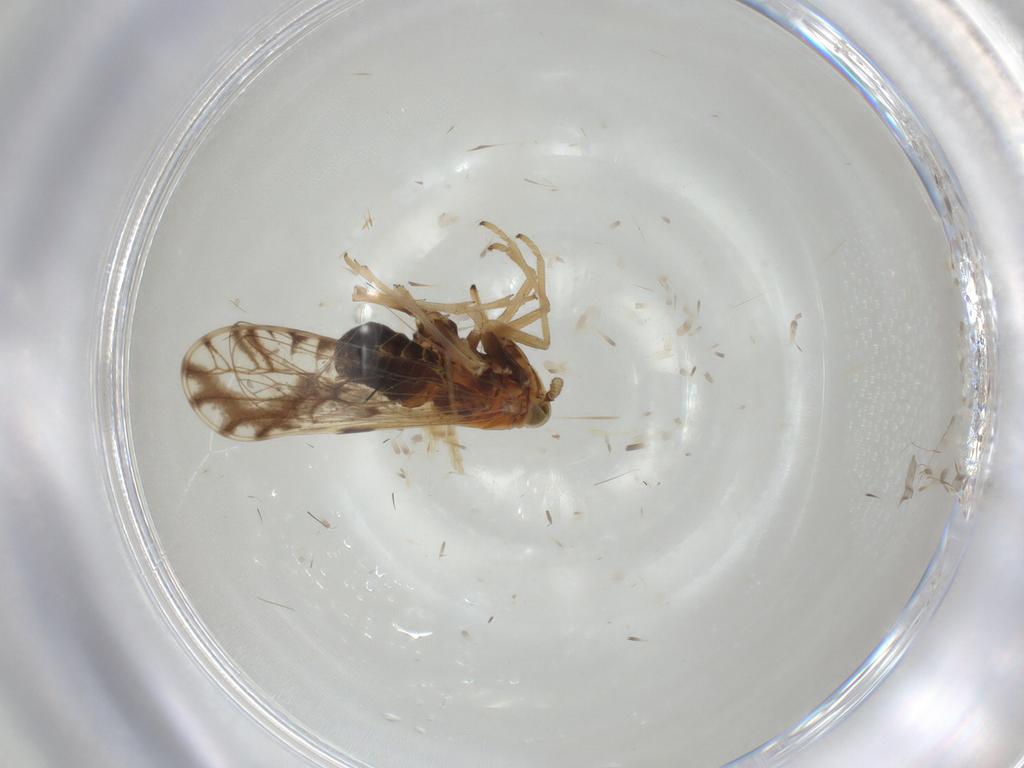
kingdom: Animalia
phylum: Arthropoda
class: Insecta
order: Hemiptera
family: Delphacidae
